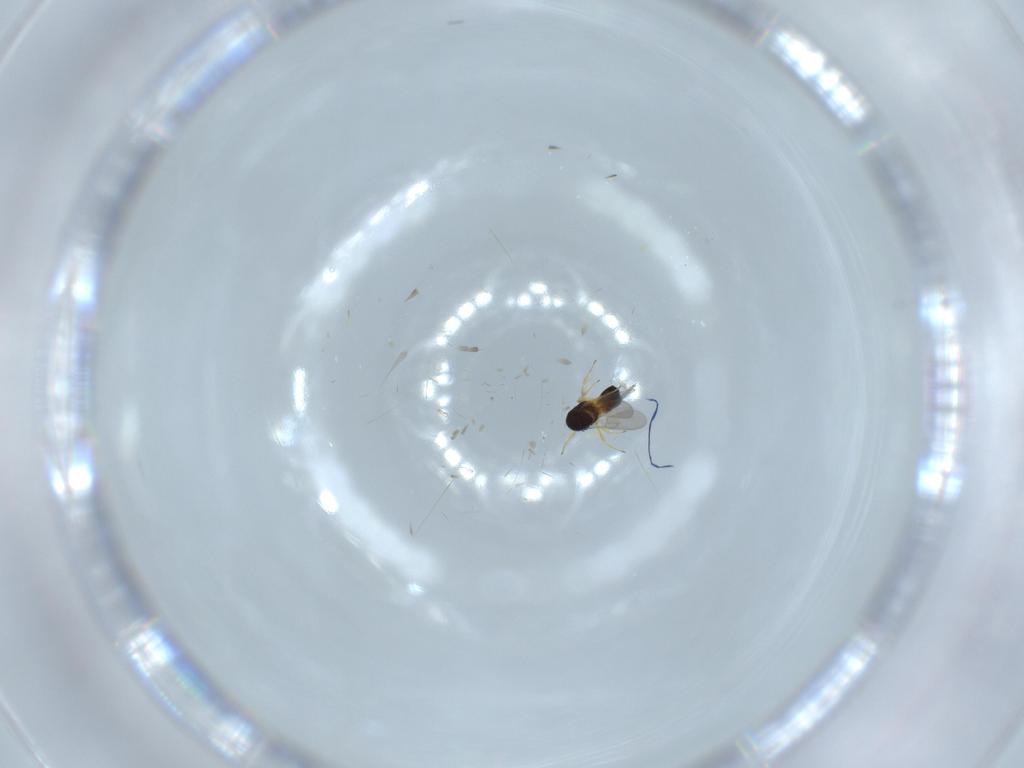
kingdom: Animalia
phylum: Arthropoda
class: Insecta
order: Hymenoptera
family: Scelionidae
